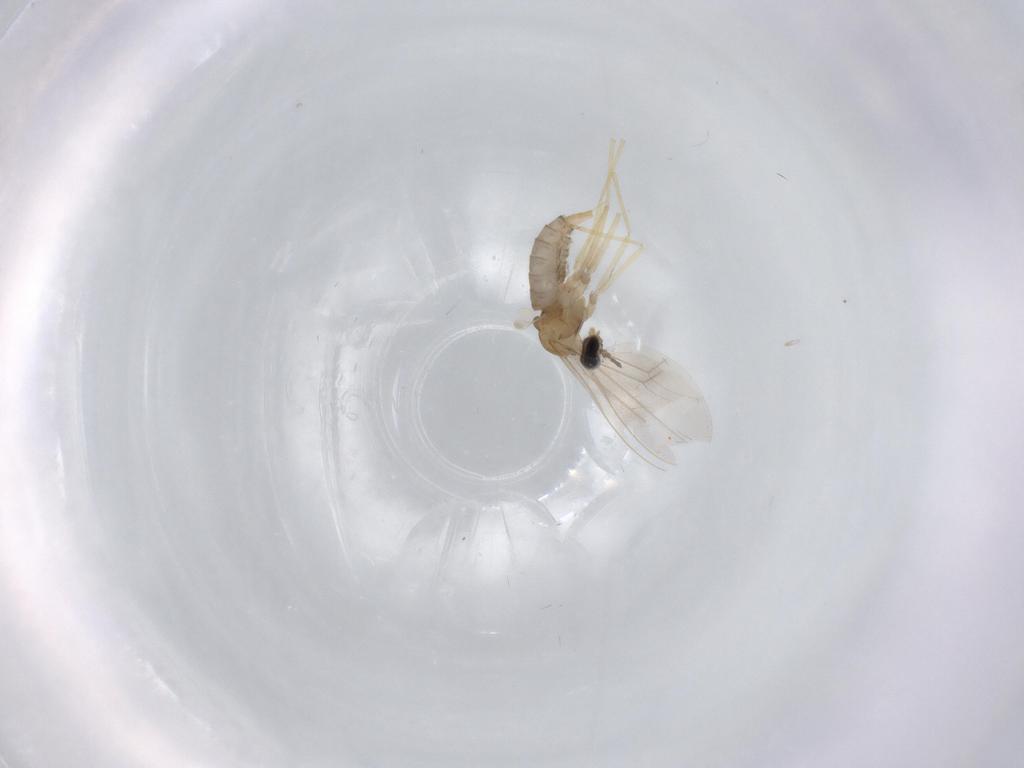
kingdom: Animalia
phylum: Arthropoda
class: Insecta
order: Diptera
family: Cecidomyiidae
